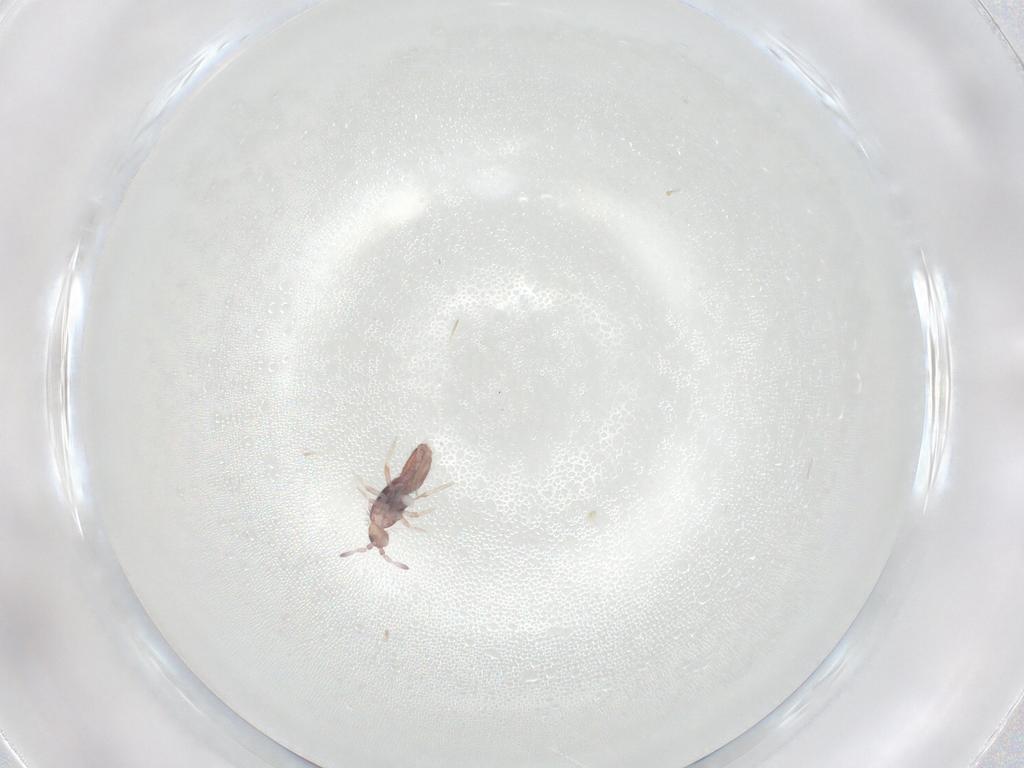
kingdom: Animalia
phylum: Arthropoda
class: Collembola
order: Entomobryomorpha
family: Entomobryidae
